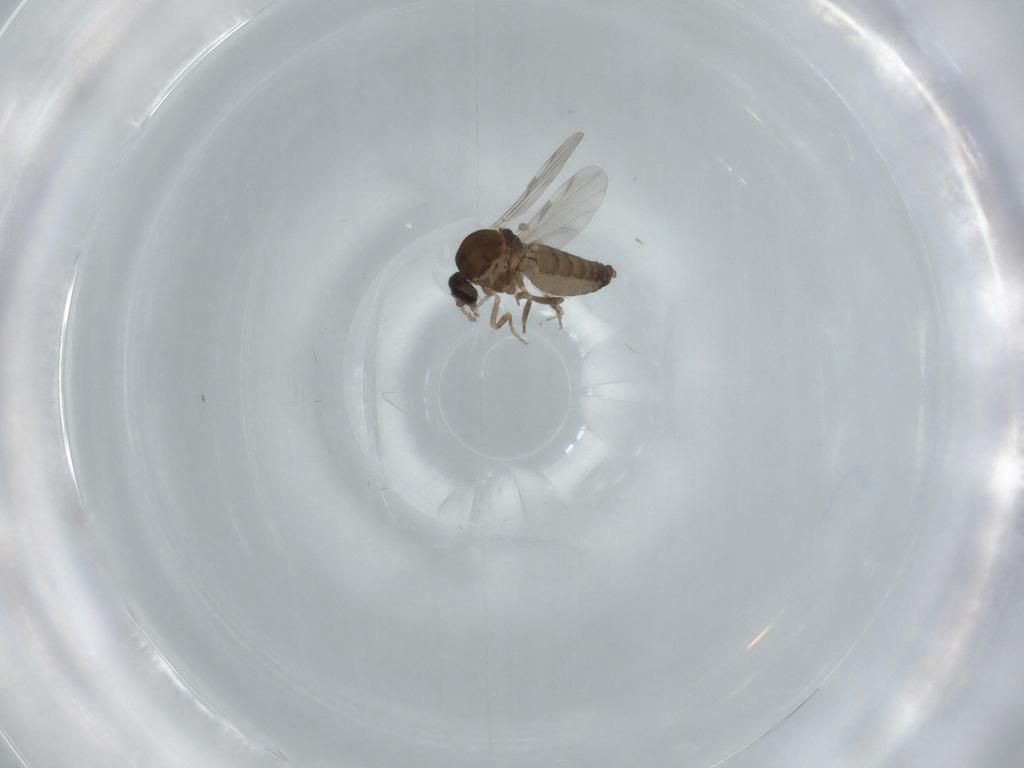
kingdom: Animalia
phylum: Arthropoda
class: Insecta
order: Diptera
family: Ceratopogonidae
